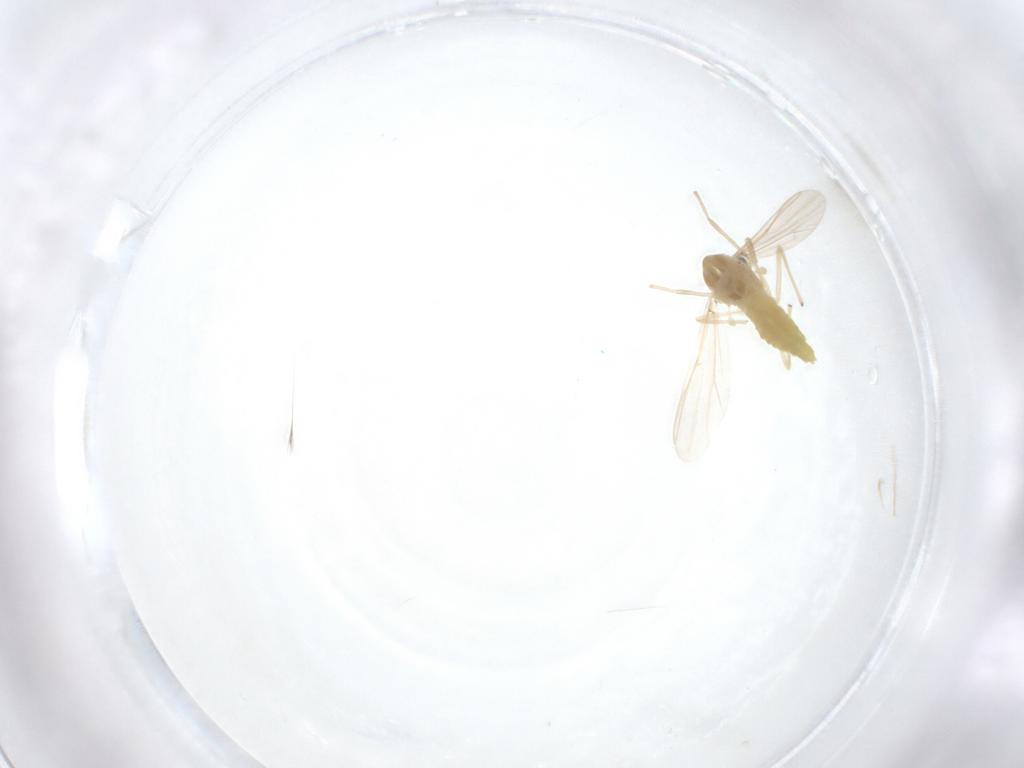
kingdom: Animalia
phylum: Arthropoda
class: Insecta
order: Diptera
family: Chironomidae
